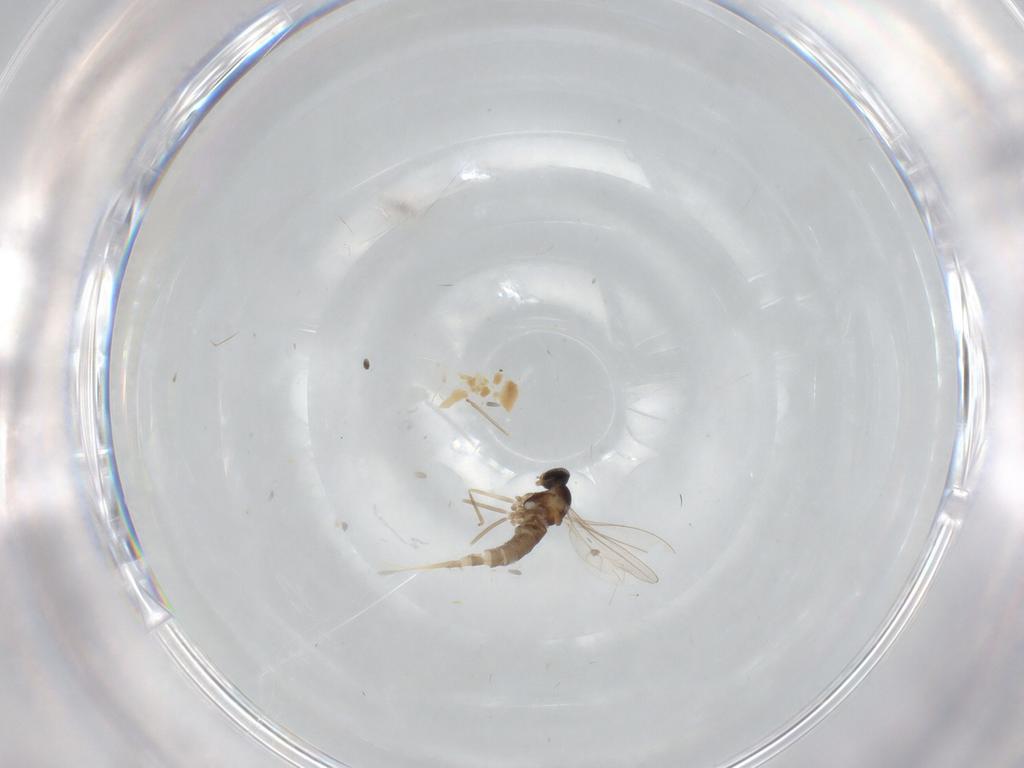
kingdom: Animalia
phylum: Arthropoda
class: Insecta
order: Diptera
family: Cecidomyiidae
